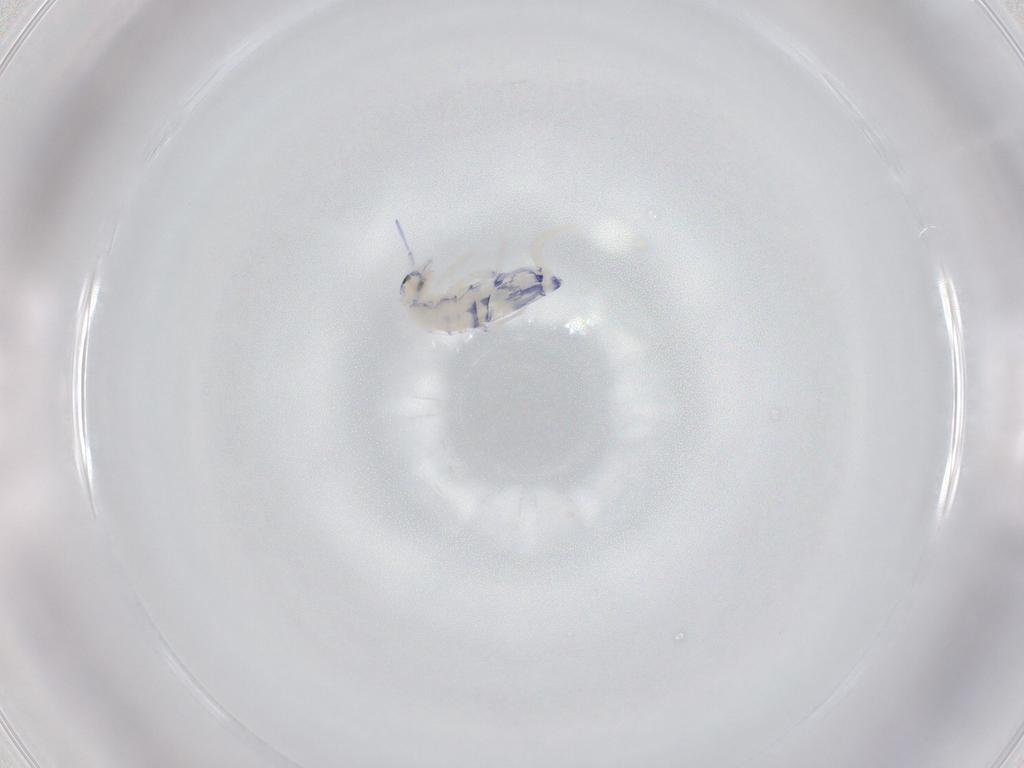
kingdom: Animalia
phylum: Arthropoda
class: Collembola
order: Entomobryomorpha
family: Entomobryidae
